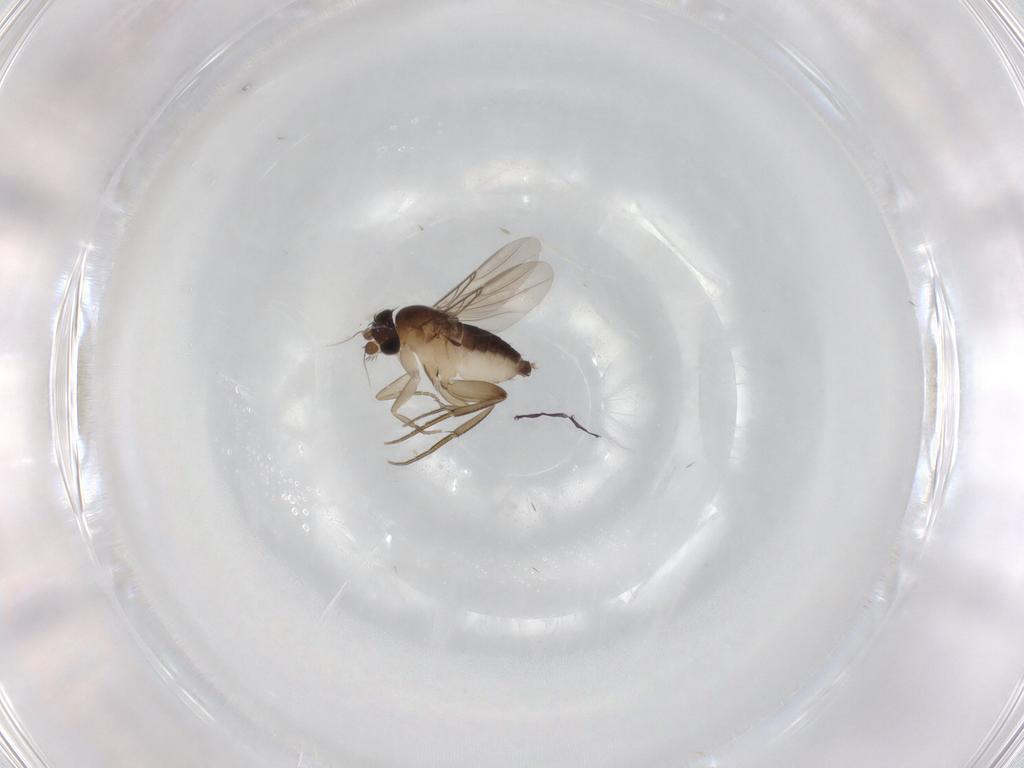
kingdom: Animalia
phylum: Arthropoda
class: Insecta
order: Diptera
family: Phoridae
